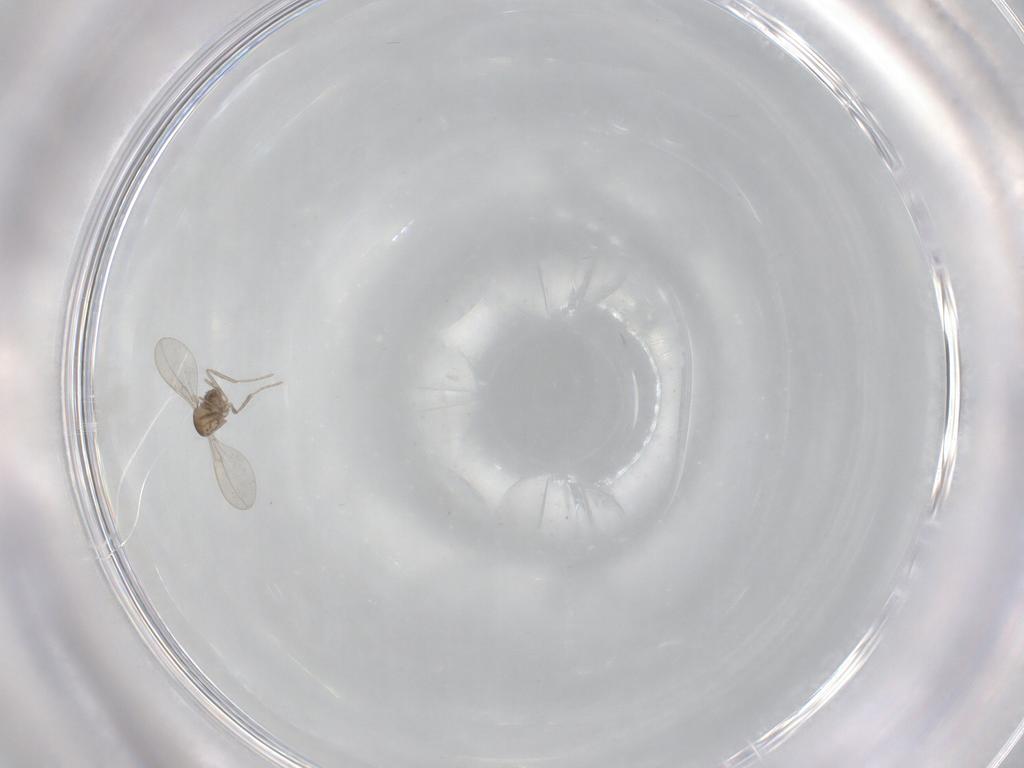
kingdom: Animalia
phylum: Arthropoda
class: Insecta
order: Diptera
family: Cecidomyiidae
